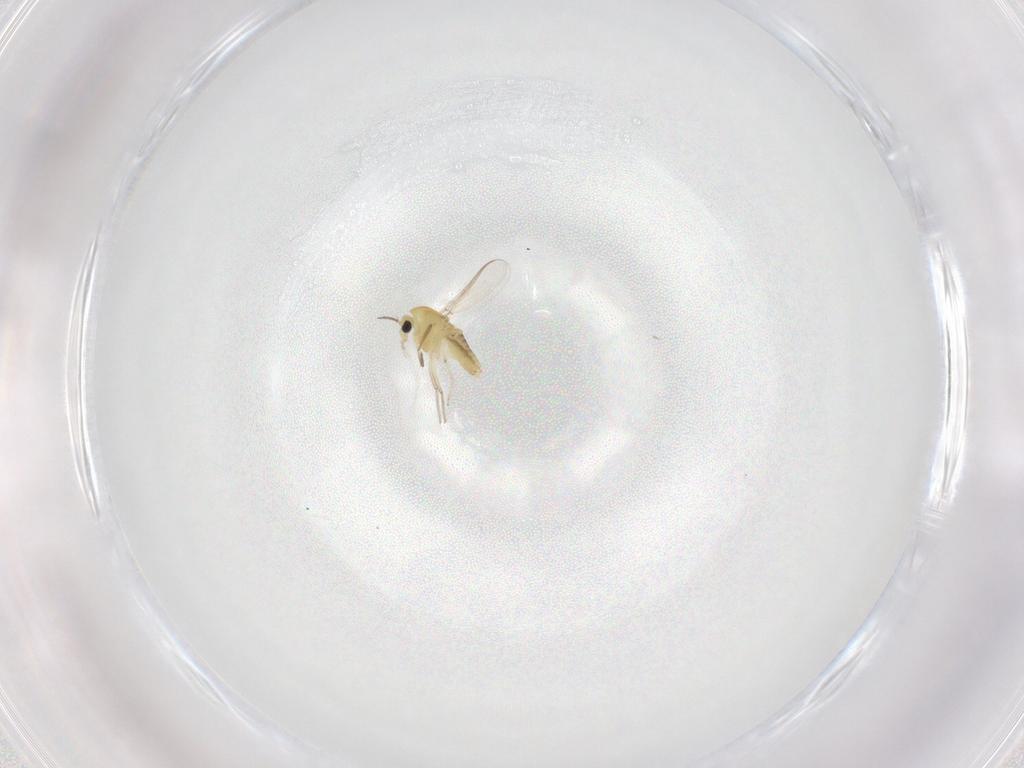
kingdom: Animalia
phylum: Arthropoda
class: Insecta
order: Diptera
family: Chironomidae
